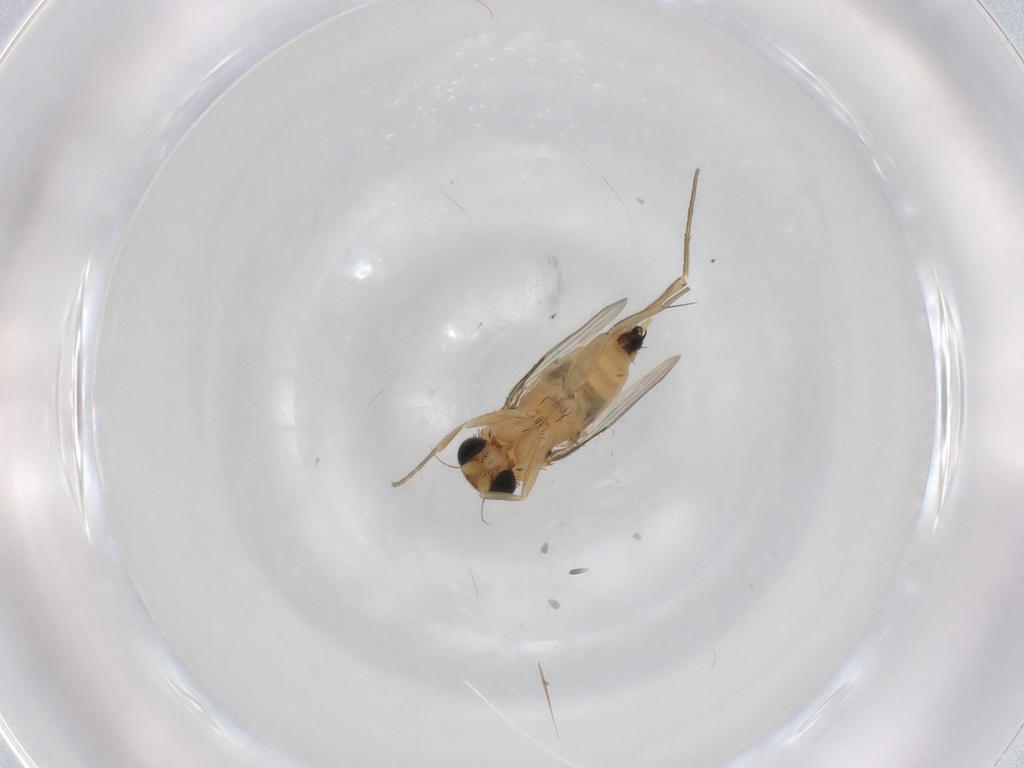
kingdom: Animalia
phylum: Arthropoda
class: Insecta
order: Diptera
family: Phoridae
